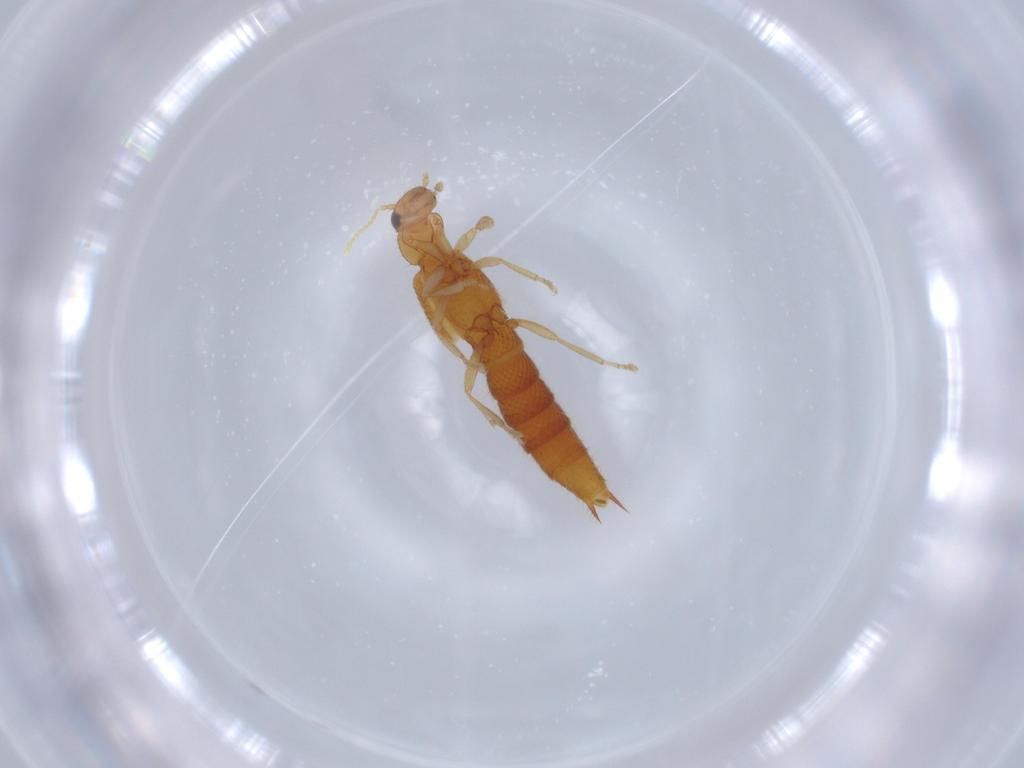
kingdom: Animalia
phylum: Arthropoda
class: Insecta
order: Coleoptera
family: Staphylinidae
